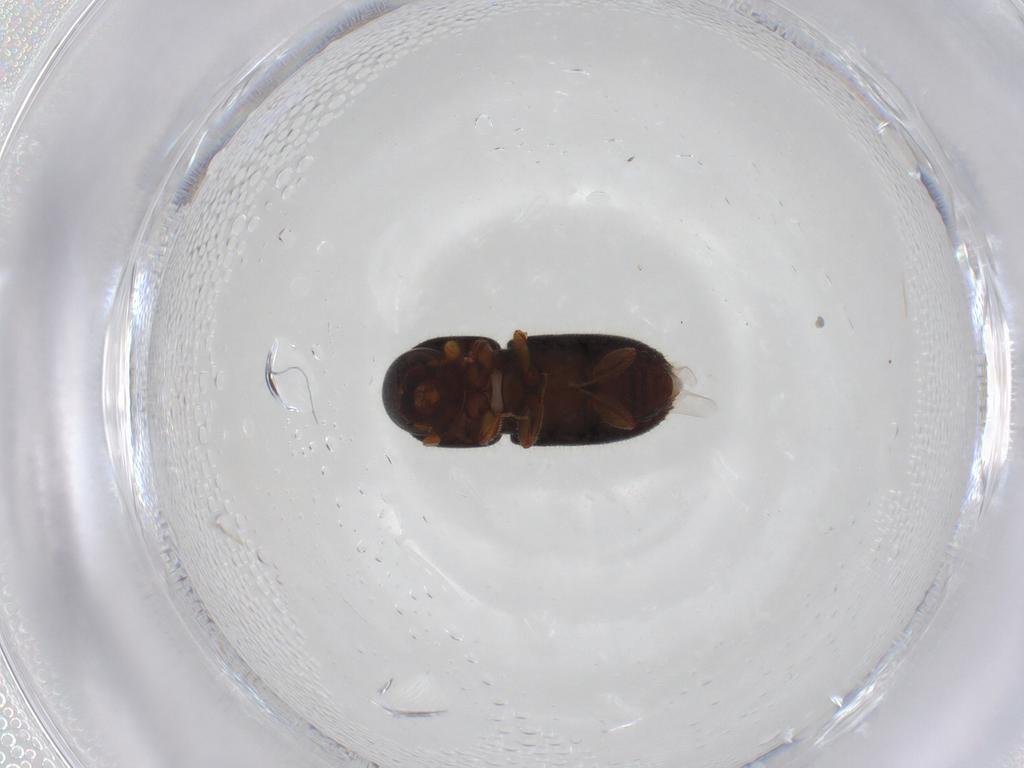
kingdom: Animalia
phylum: Arthropoda
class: Insecta
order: Coleoptera
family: Curculionidae
